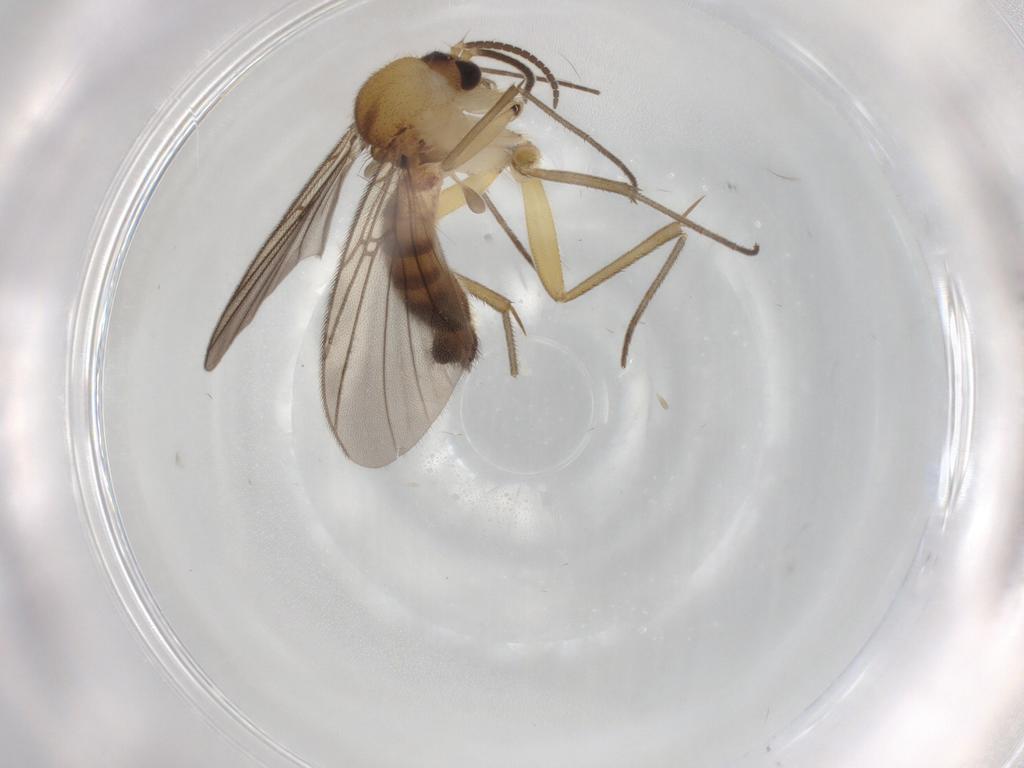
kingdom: Animalia
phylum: Arthropoda
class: Insecta
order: Diptera
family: Mycetophilidae
